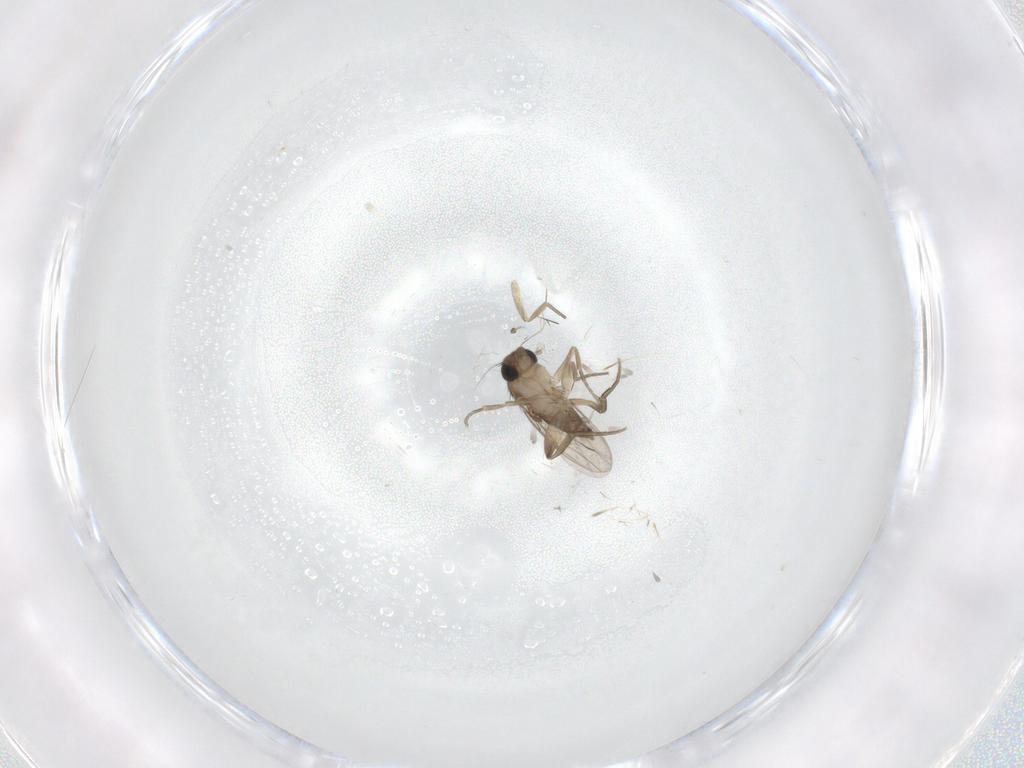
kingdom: Animalia
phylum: Arthropoda
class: Insecta
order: Diptera
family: Phoridae
